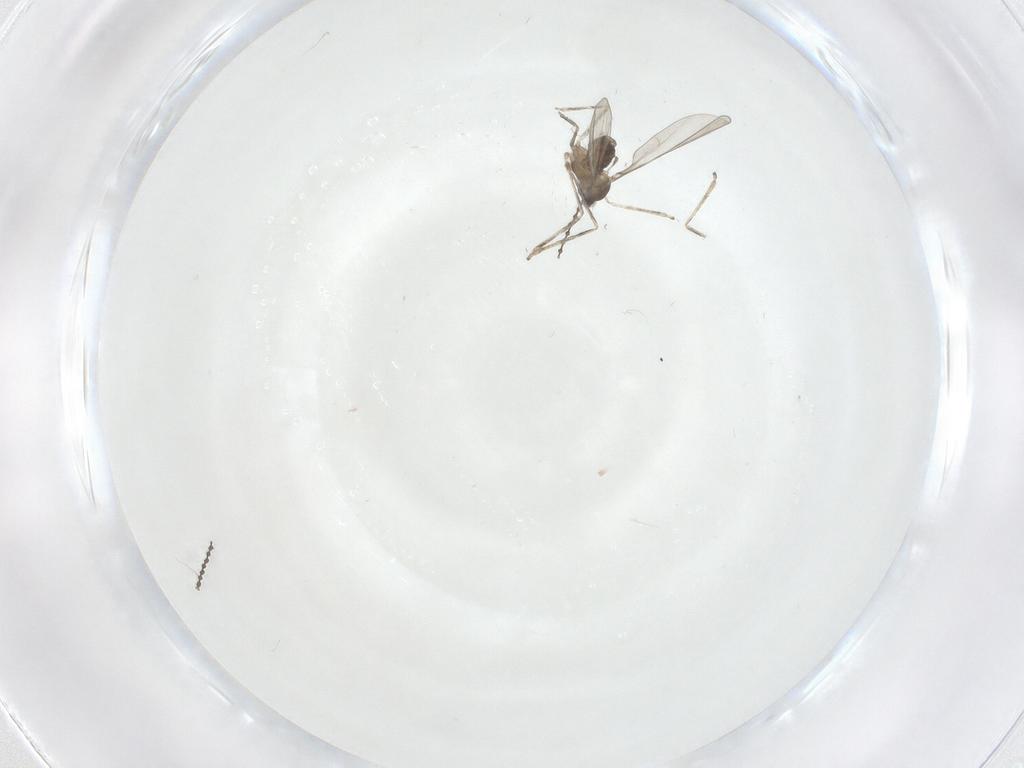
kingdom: Animalia
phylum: Arthropoda
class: Insecta
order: Diptera
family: Cecidomyiidae
